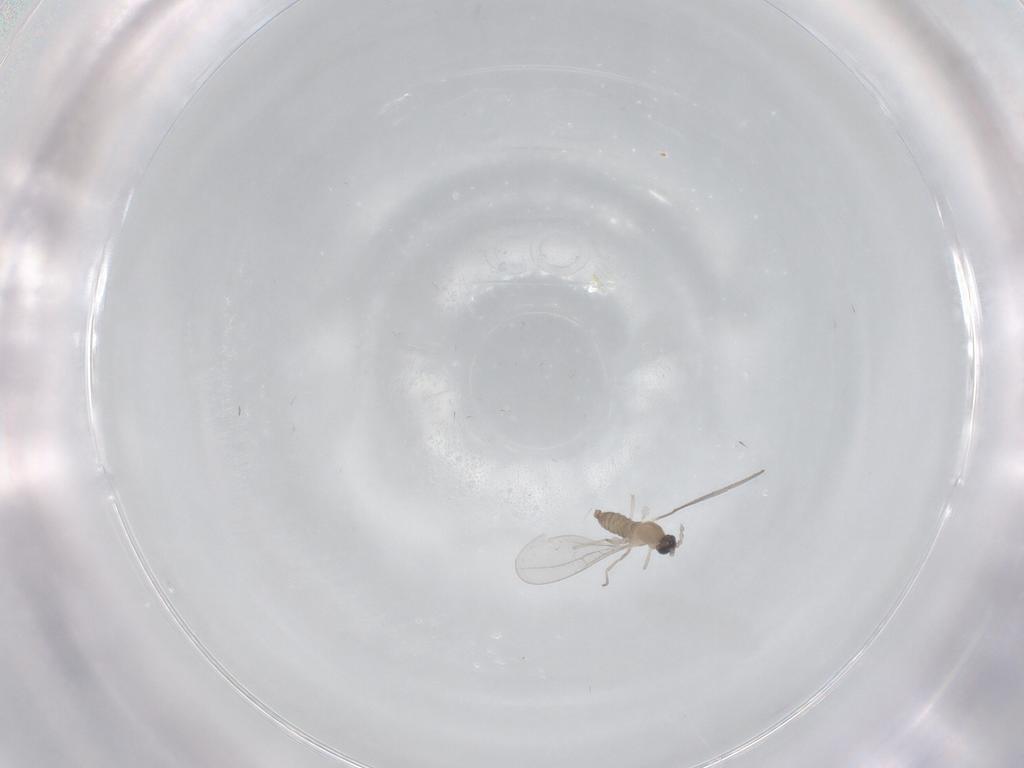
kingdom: Animalia
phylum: Arthropoda
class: Insecta
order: Diptera
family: Cecidomyiidae
